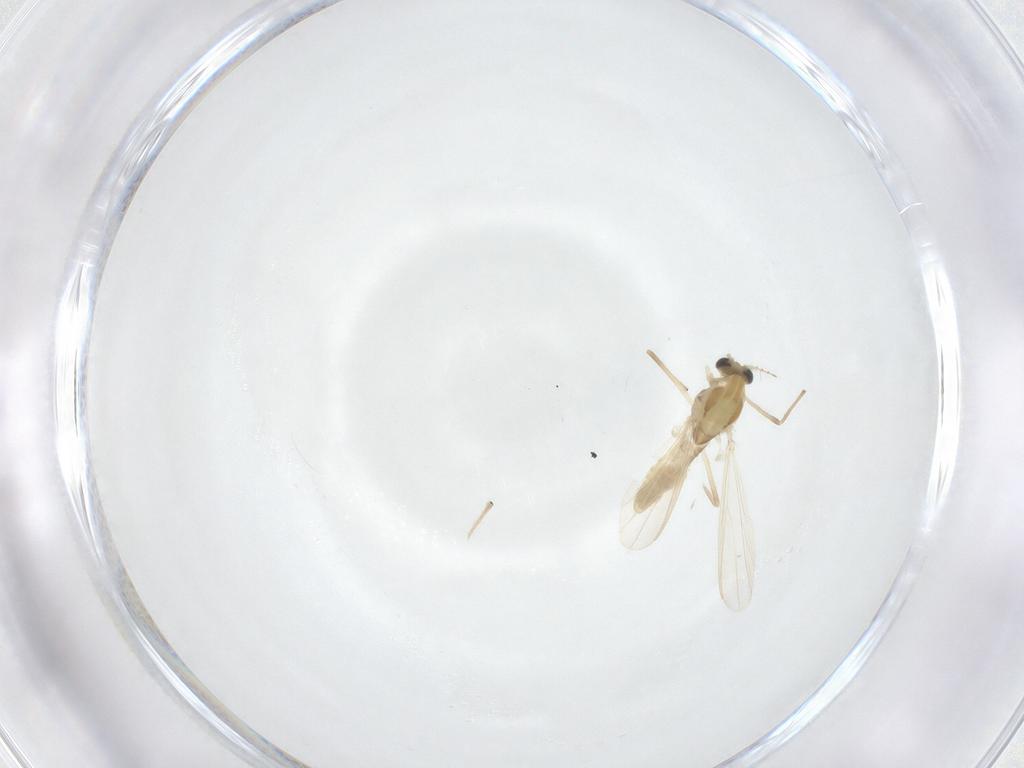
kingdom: Animalia
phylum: Arthropoda
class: Insecta
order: Diptera
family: Chironomidae
